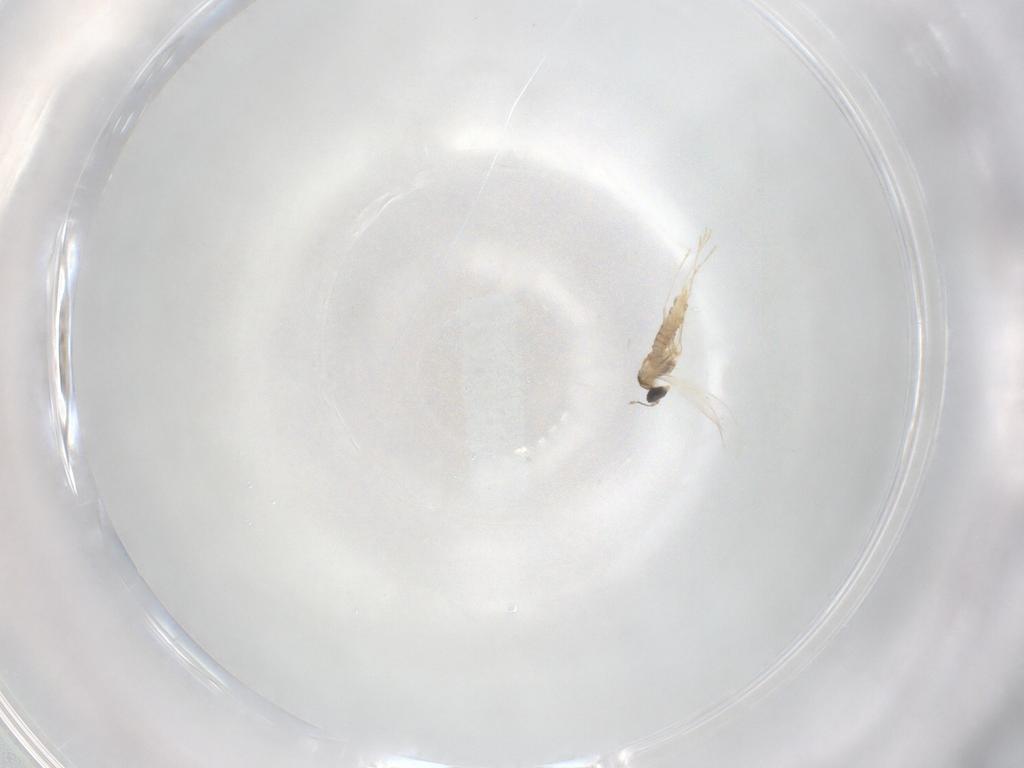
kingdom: Animalia
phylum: Arthropoda
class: Insecta
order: Diptera
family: Cecidomyiidae
